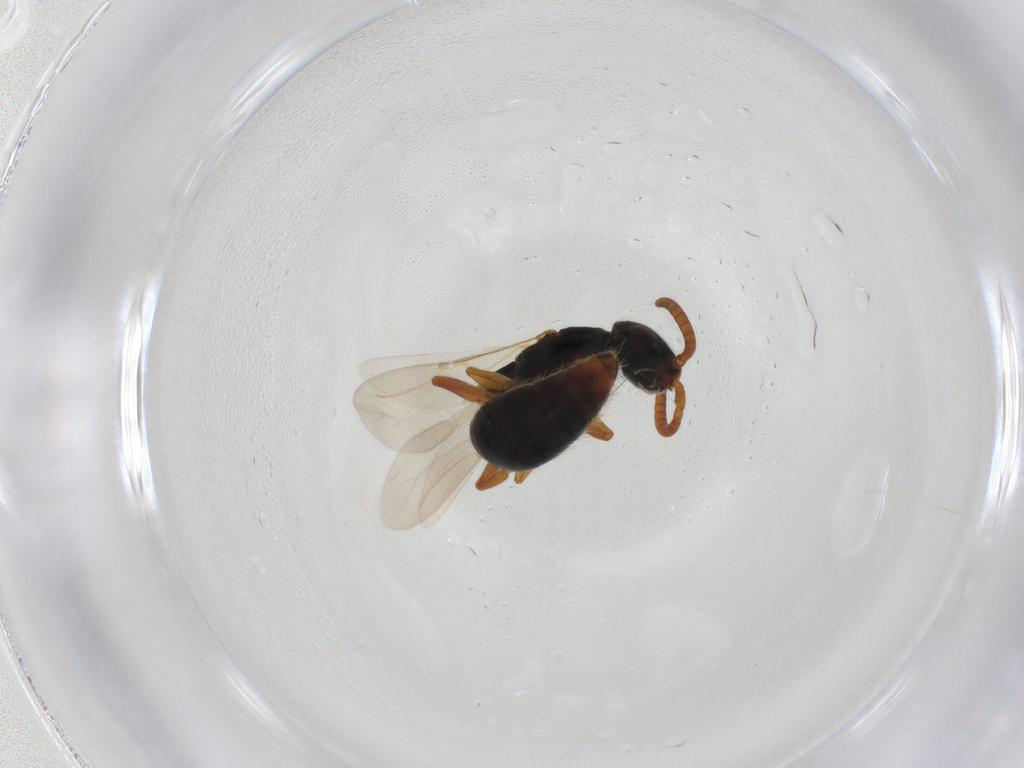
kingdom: Animalia
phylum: Arthropoda
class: Insecta
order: Hymenoptera
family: Bethylidae
